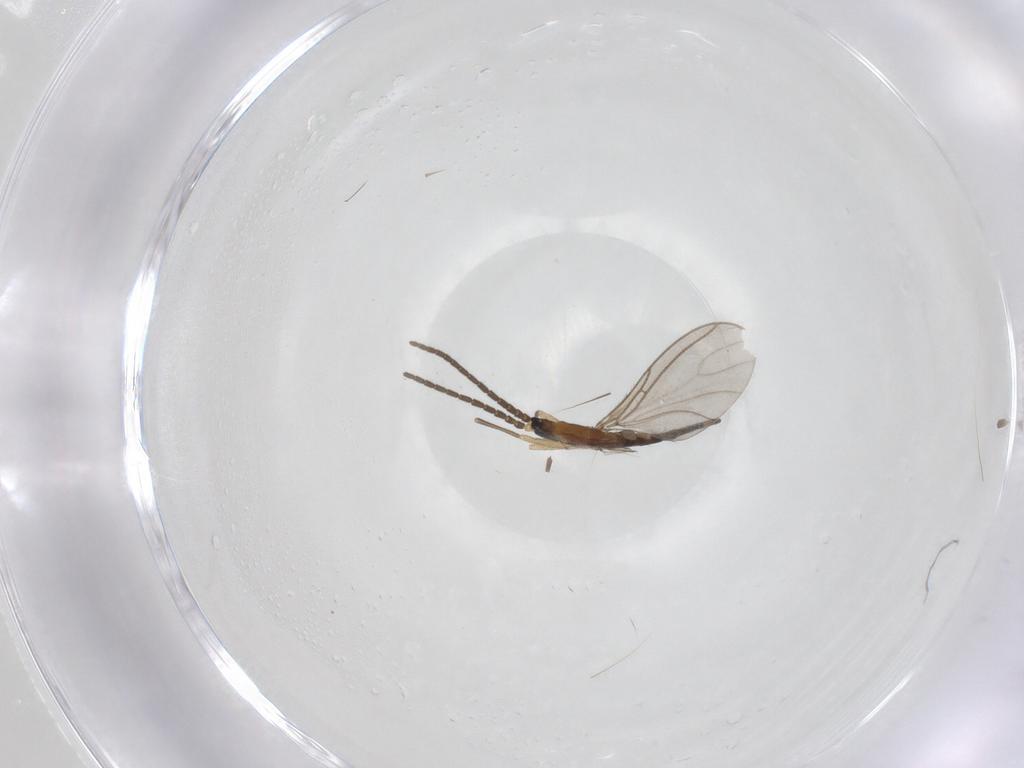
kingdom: Animalia
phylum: Arthropoda
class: Insecta
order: Diptera
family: Sciaridae
